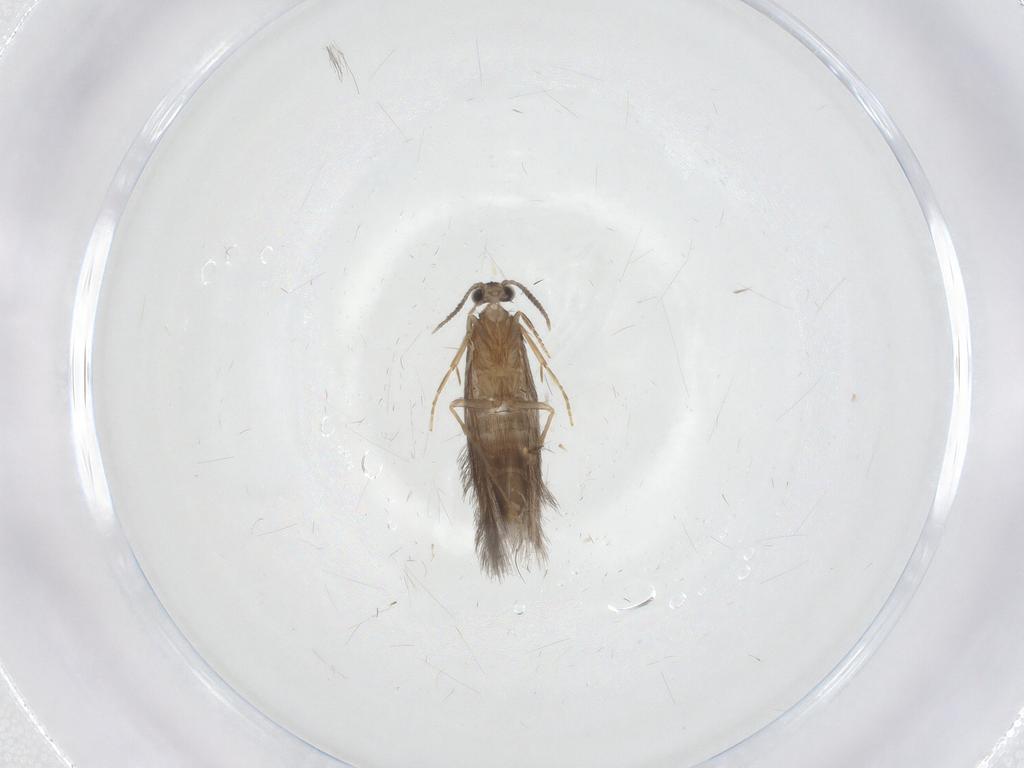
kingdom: Animalia
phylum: Arthropoda
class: Insecta
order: Trichoptera
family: Hydroptilidae
